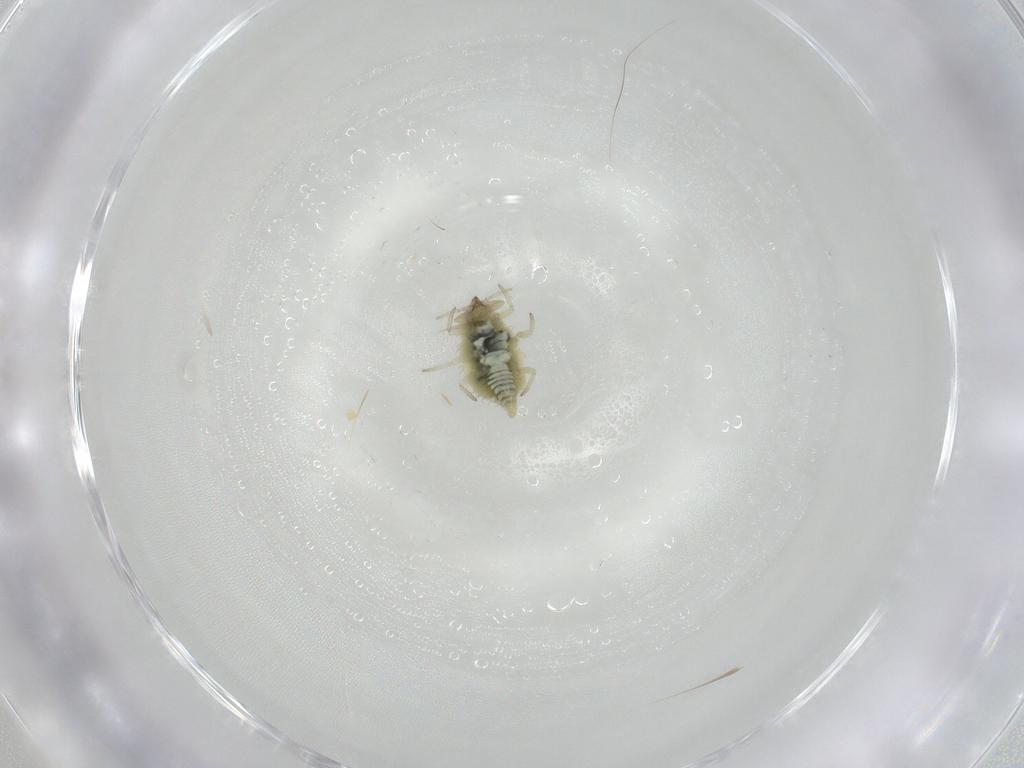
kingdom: Animalia
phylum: Arthropoda
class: Insecta
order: Neuroptera
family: Coniopterygidae
